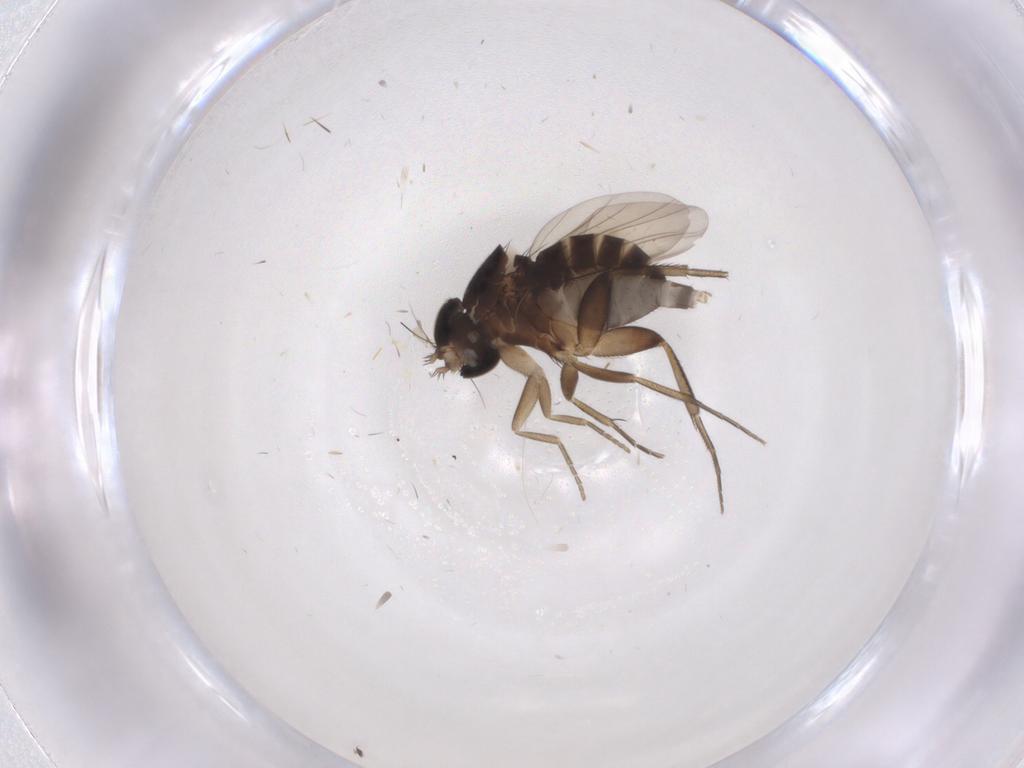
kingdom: Animalia
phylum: Arthropoda
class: Insecta
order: Diptera
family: Phoridae
